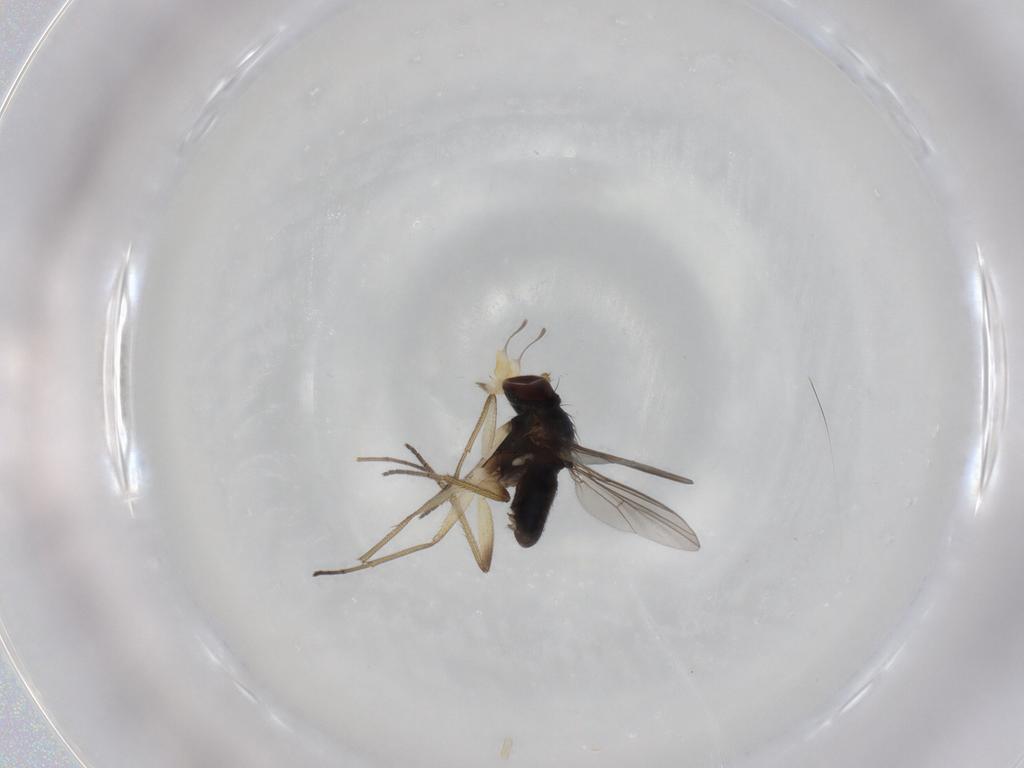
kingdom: Animalia
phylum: Arthropoda
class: Insecta
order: Diptera
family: Dolichopodidae
